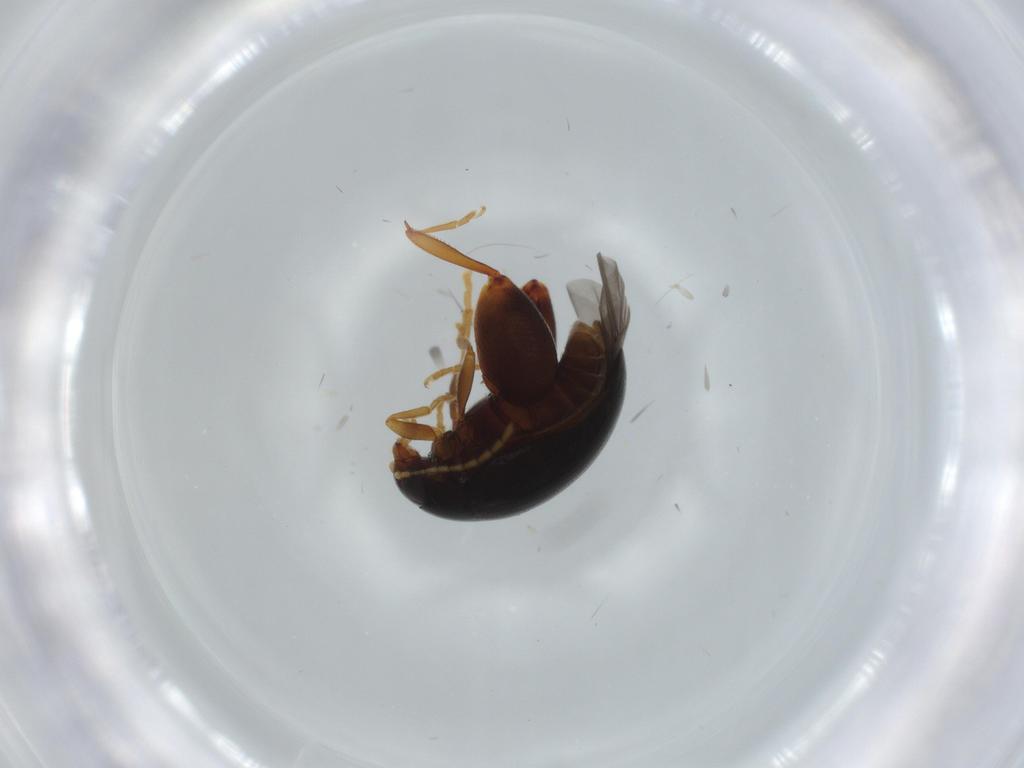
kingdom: Animalia
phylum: Arthropoda
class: Insecta
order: Coleoptera
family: Chrysomelidae
